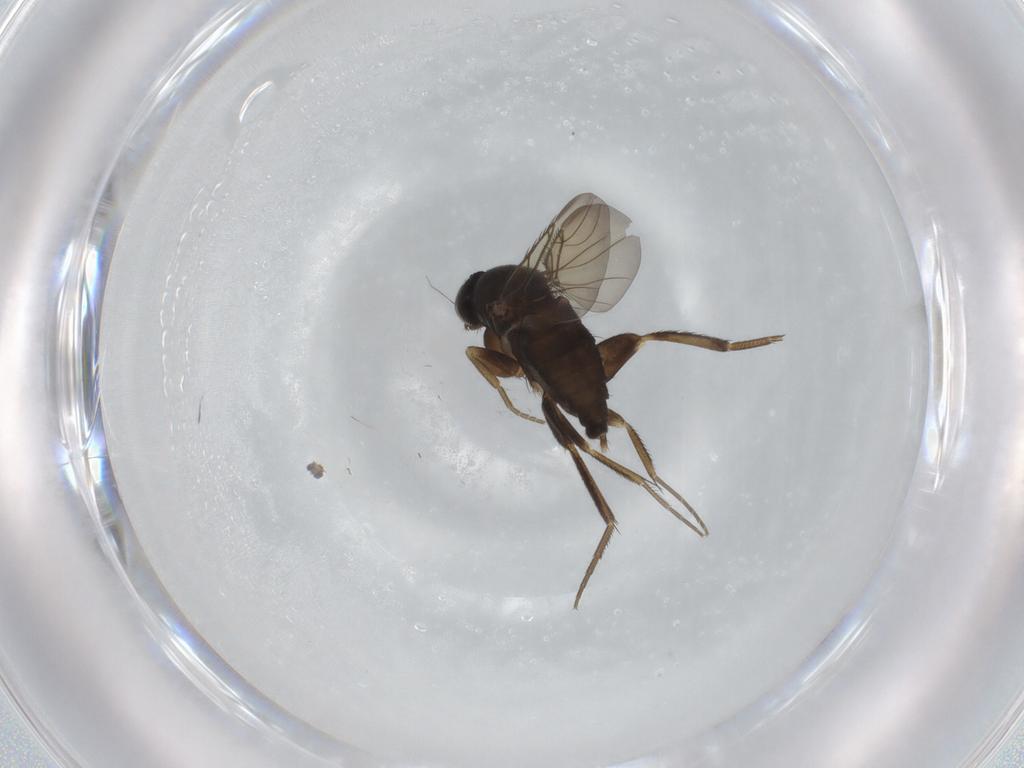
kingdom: Animalia
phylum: Arthropoda
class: Insecta
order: Diptera
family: Phoridae
